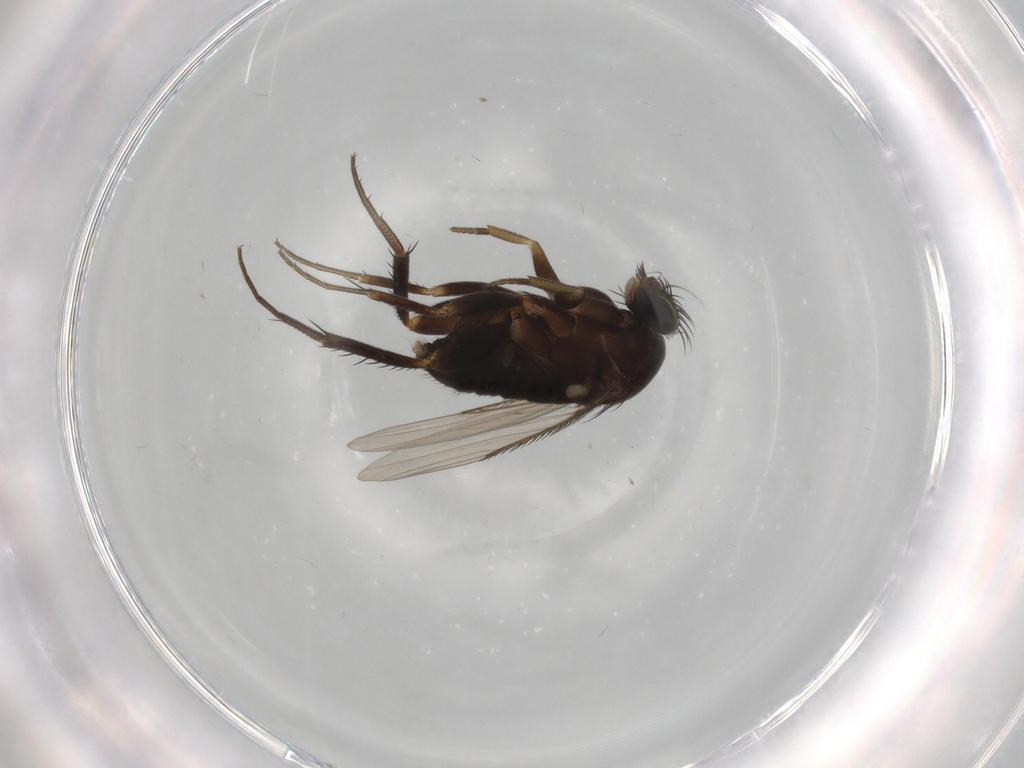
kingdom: Animalia
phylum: Arthropoda
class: Insecta
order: Diptera
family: Phoridae
